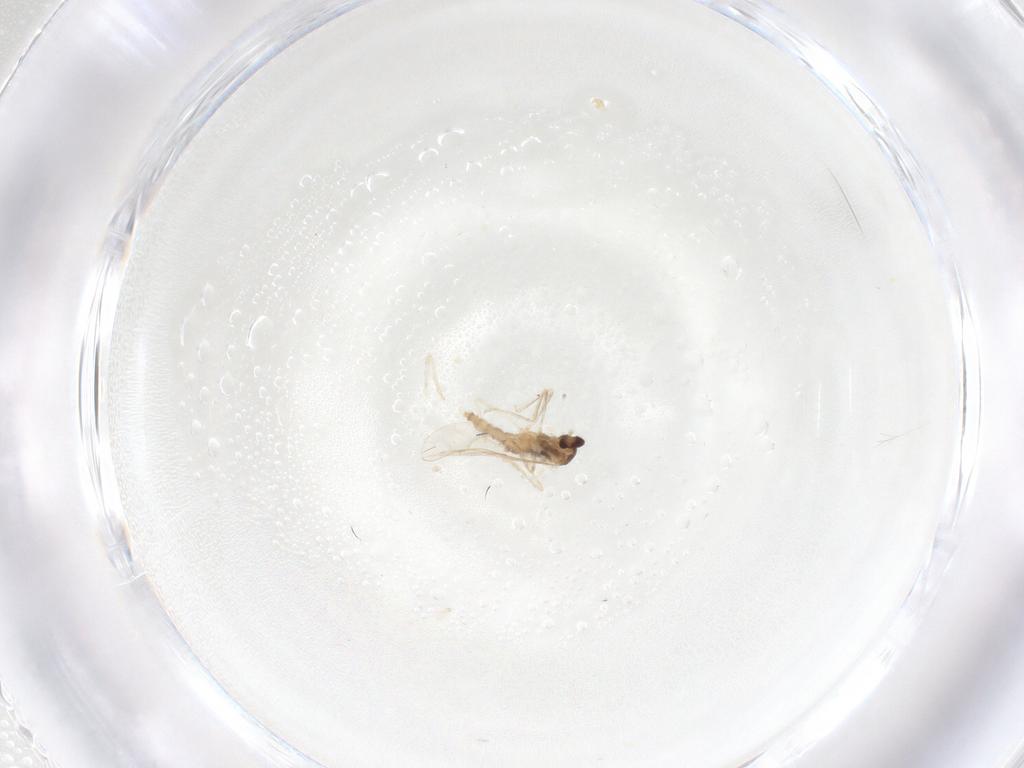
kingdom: Animalia
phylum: Arthropoda
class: Insecta
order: Diptera
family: Cecidomyiidae
